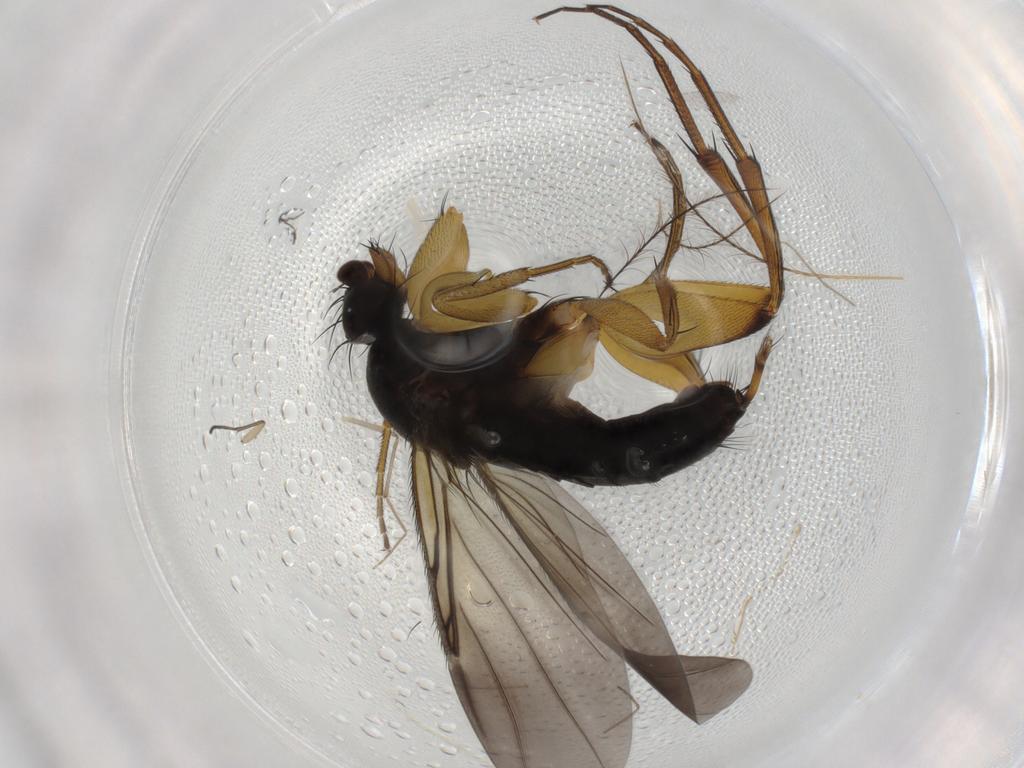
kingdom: Animalia
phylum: Arthropoda
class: Insecta
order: Diptera
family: Phoridae
